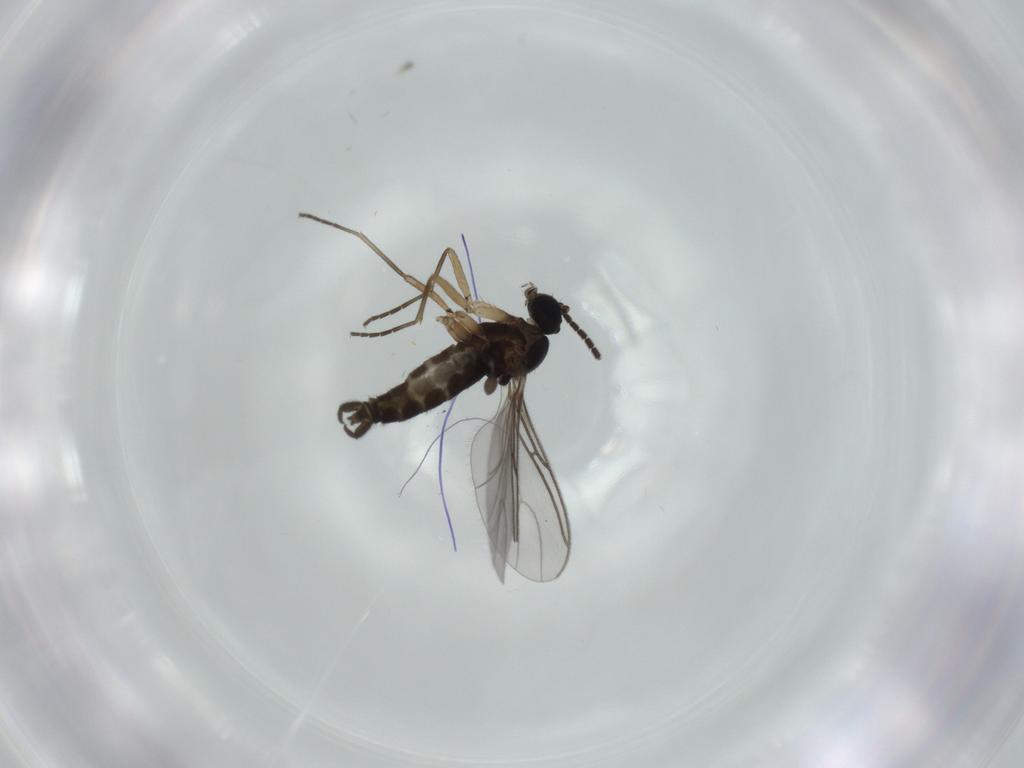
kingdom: Animalia
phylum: Arthropoda
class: Insecta
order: Diptera
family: Sciaridae
